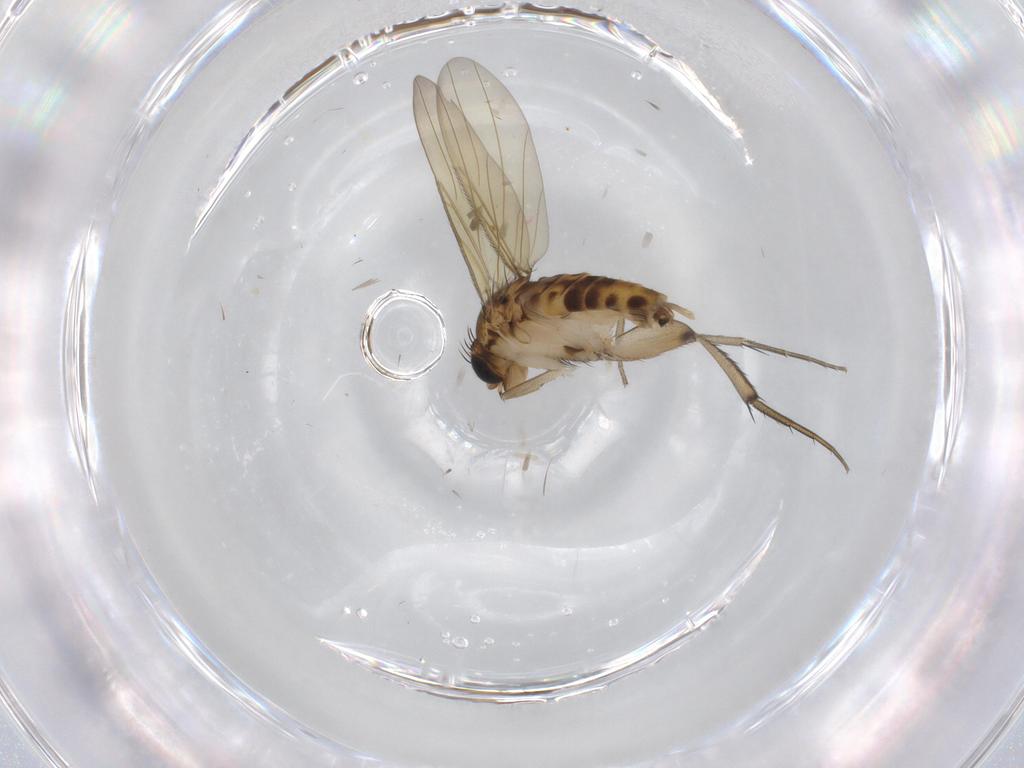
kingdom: Animalia
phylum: Arthropoda
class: Insecta
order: Diptera
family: Phoridae
